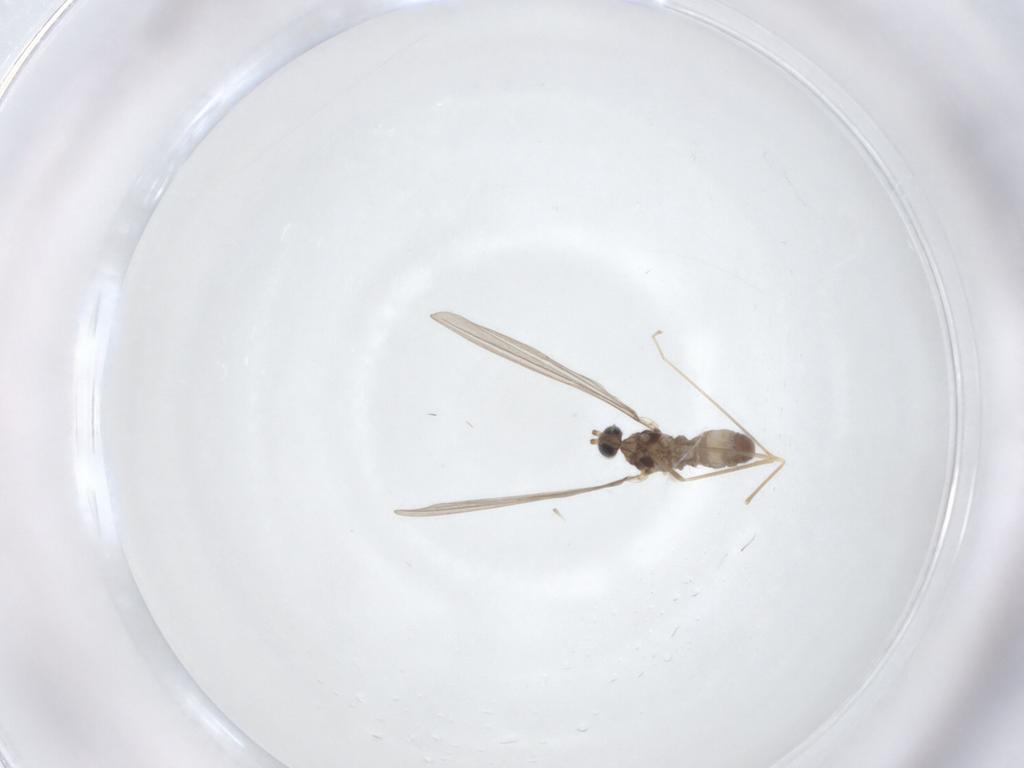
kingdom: Animalia
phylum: Arthropoda
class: Insecta
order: Diptera
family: Cecidomyiidae
